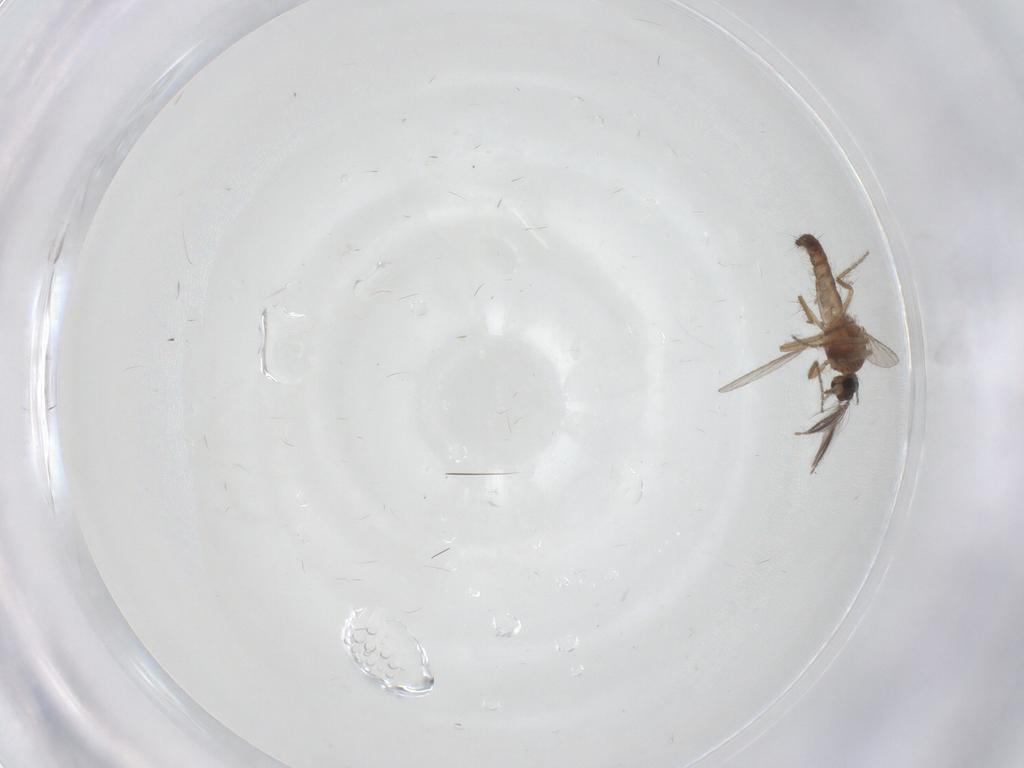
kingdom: Animalia
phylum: Arthropoda
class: Insecta
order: Diptera
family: Ceratopogonidae
